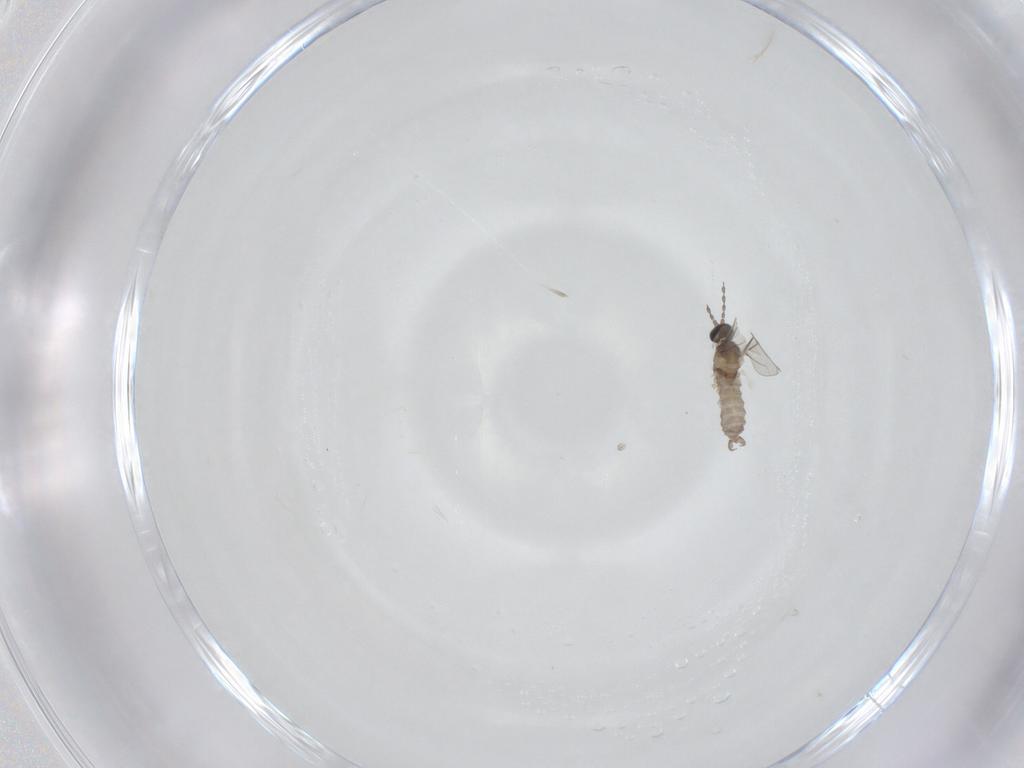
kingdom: Animalia
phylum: Arthropoda
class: Insecta
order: Diptera
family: Cecidomyiidae
